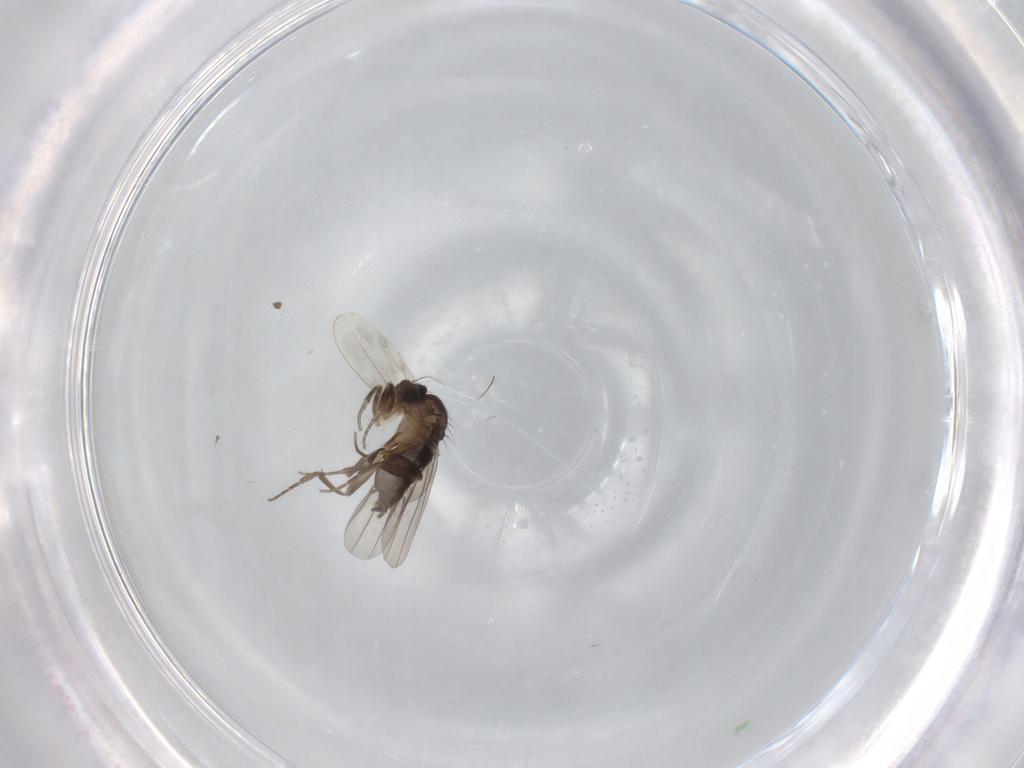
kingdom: Animalia
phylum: Arthropoda
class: Insecta
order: Diptera
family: Phoridae
